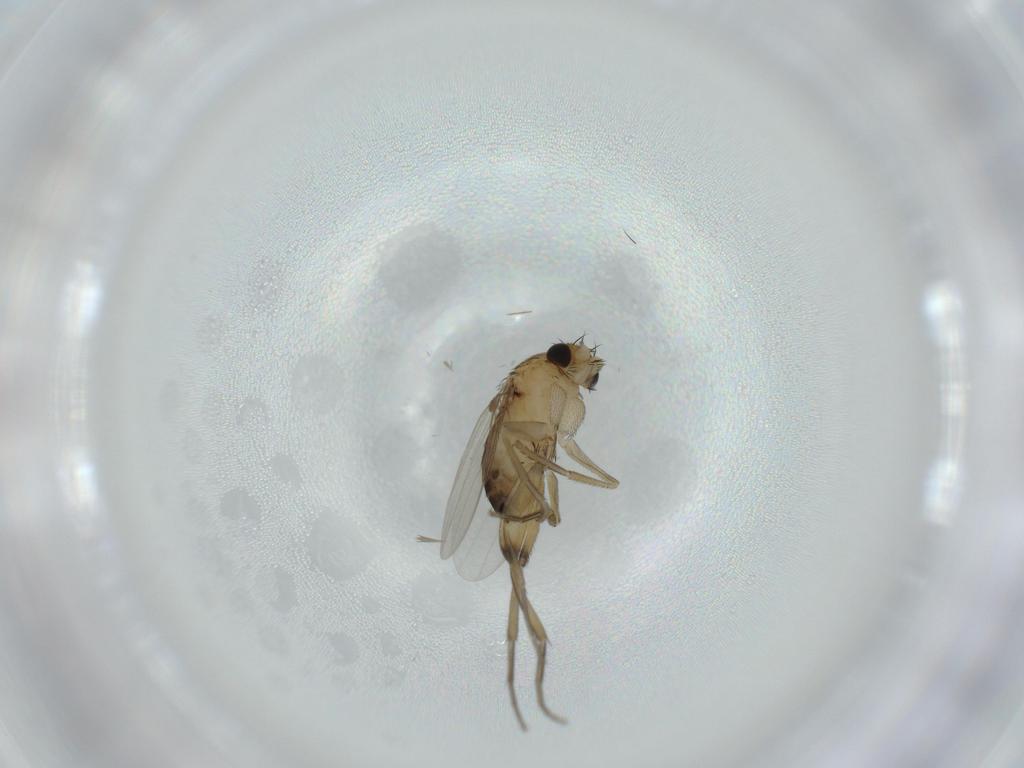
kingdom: Animalia
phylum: Arthropoda
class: Insecta
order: Diptera
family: Phoridae
